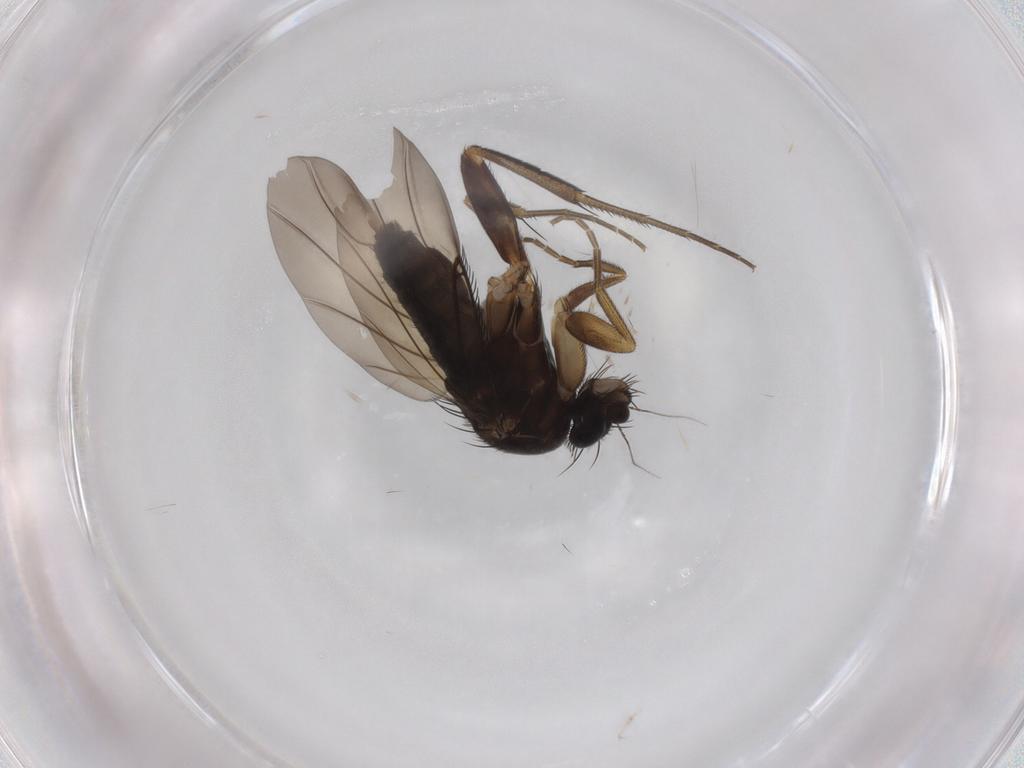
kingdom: Animalia
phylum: Arthropoda
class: Insecta
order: Diptera
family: Phoridae
